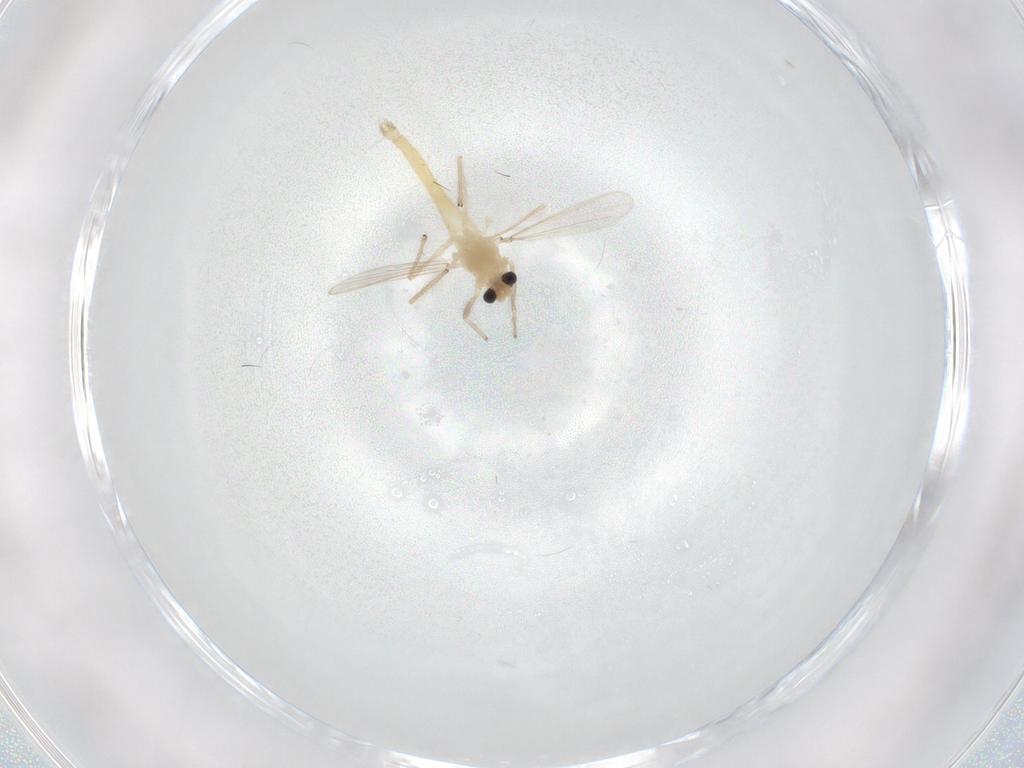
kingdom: Animalia
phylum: Arthropoda
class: Insecta
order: Diptera
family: Chironomidae
